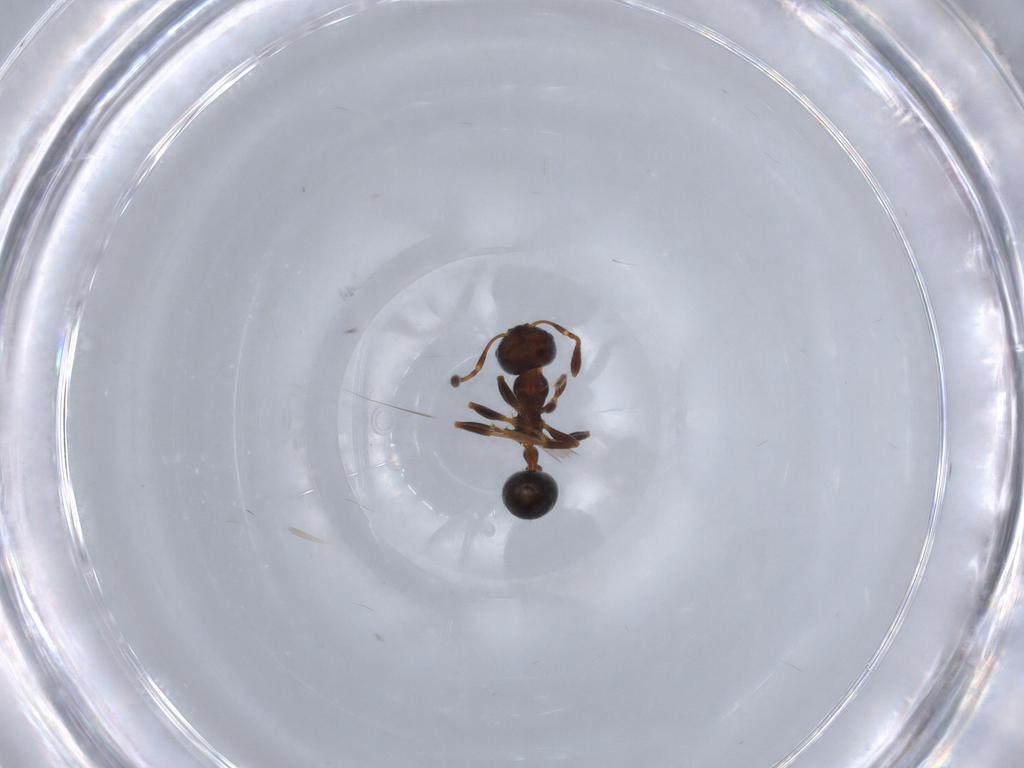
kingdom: Animalia
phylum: Arthropoda
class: Insecta
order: Hymenoptera
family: Formicidae
